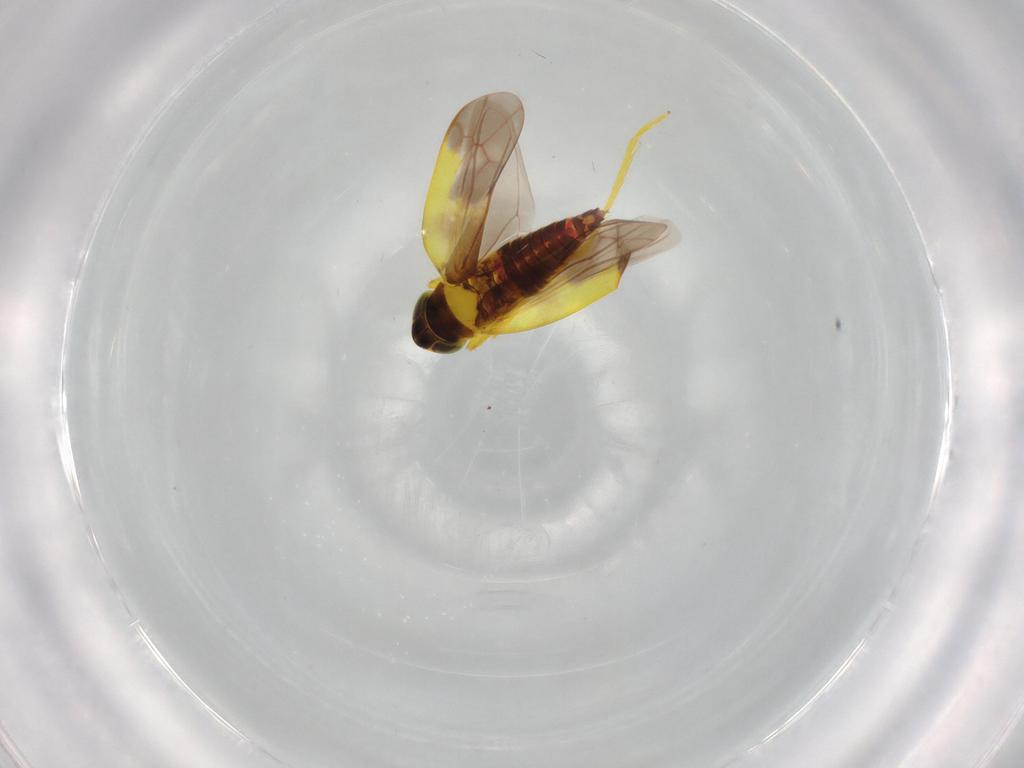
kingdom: Animalia
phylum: Arthropoda
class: Insecta
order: Hemiptera
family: Cicadellidae
